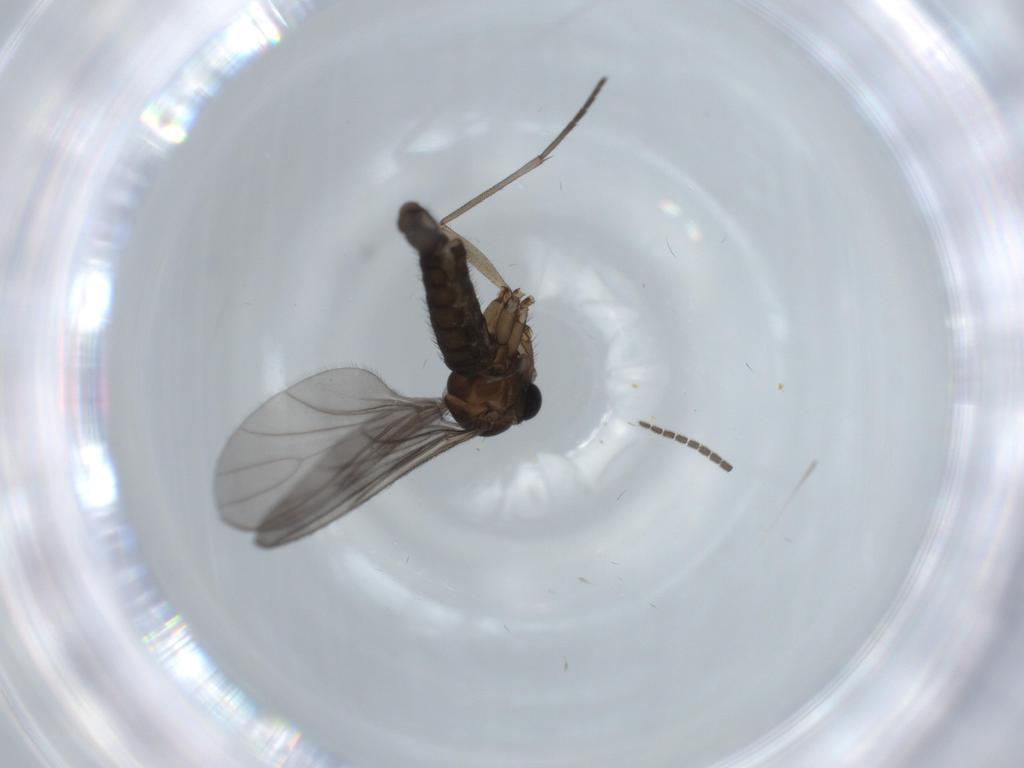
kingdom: Animalia
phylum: Arthropoda
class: Insecta
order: Diptera
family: Sciaridae
